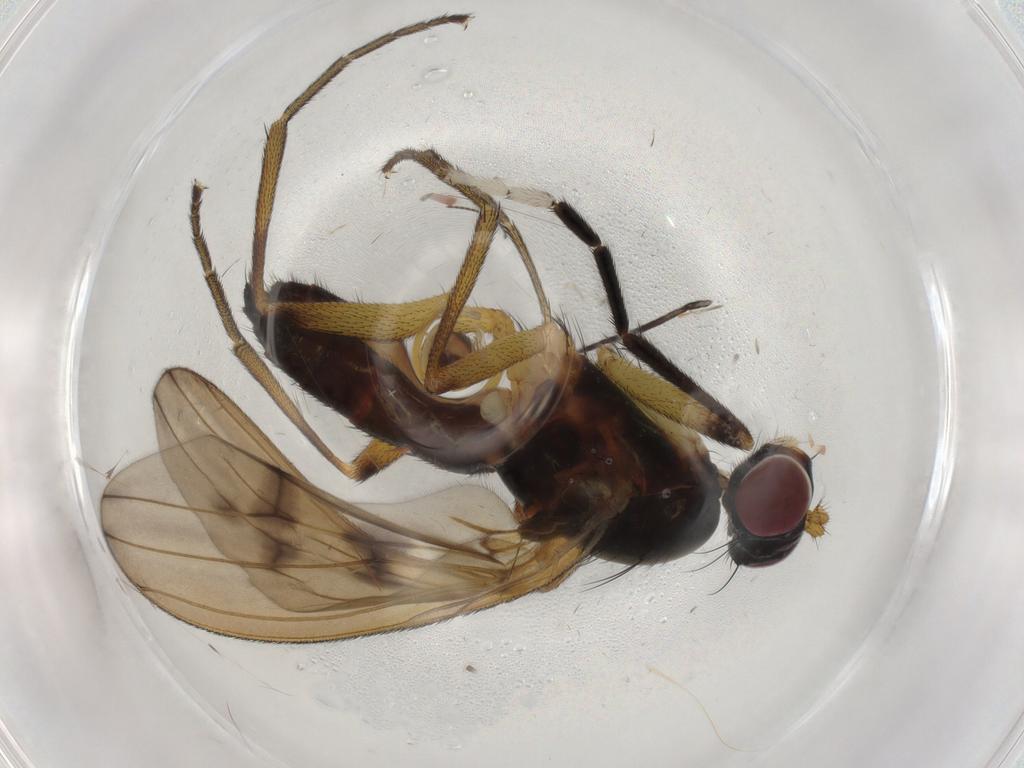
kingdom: Animalia
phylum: Arthropoda
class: Insecta
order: Diptera
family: Sciomyzidae
